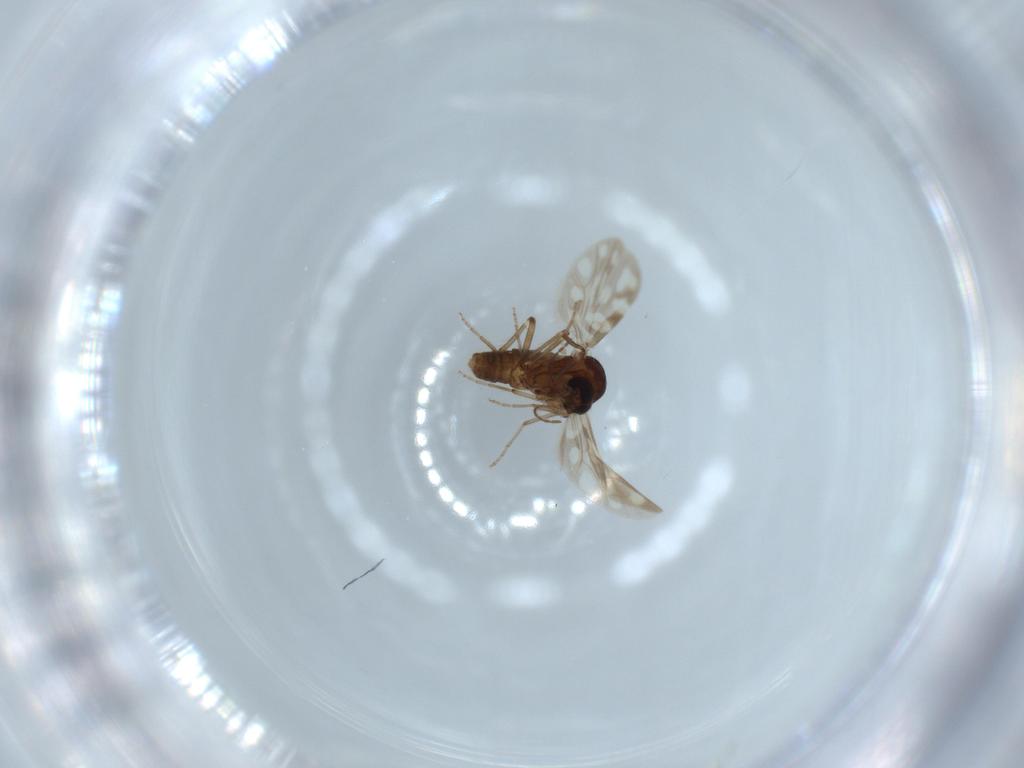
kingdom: Animalia
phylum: Arthropoda
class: Insecta
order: Diptera
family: Ceratopogonidae
